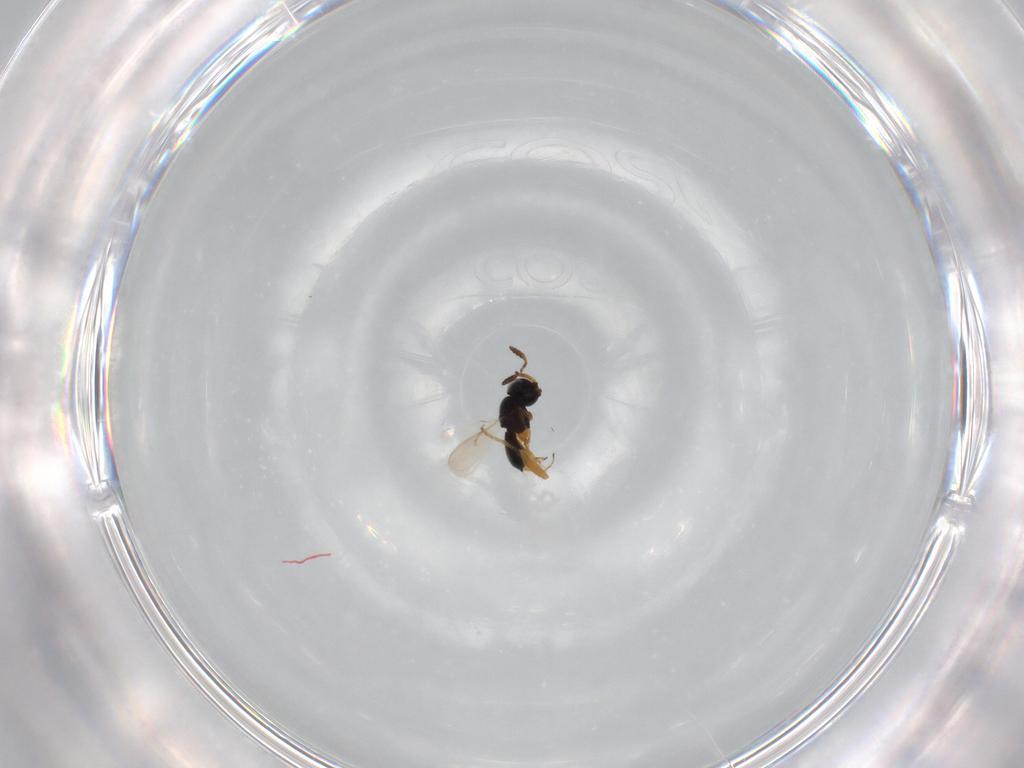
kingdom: Animalia
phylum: Arthropoda
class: Insecta
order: Hymenoptera
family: Scelionidae
